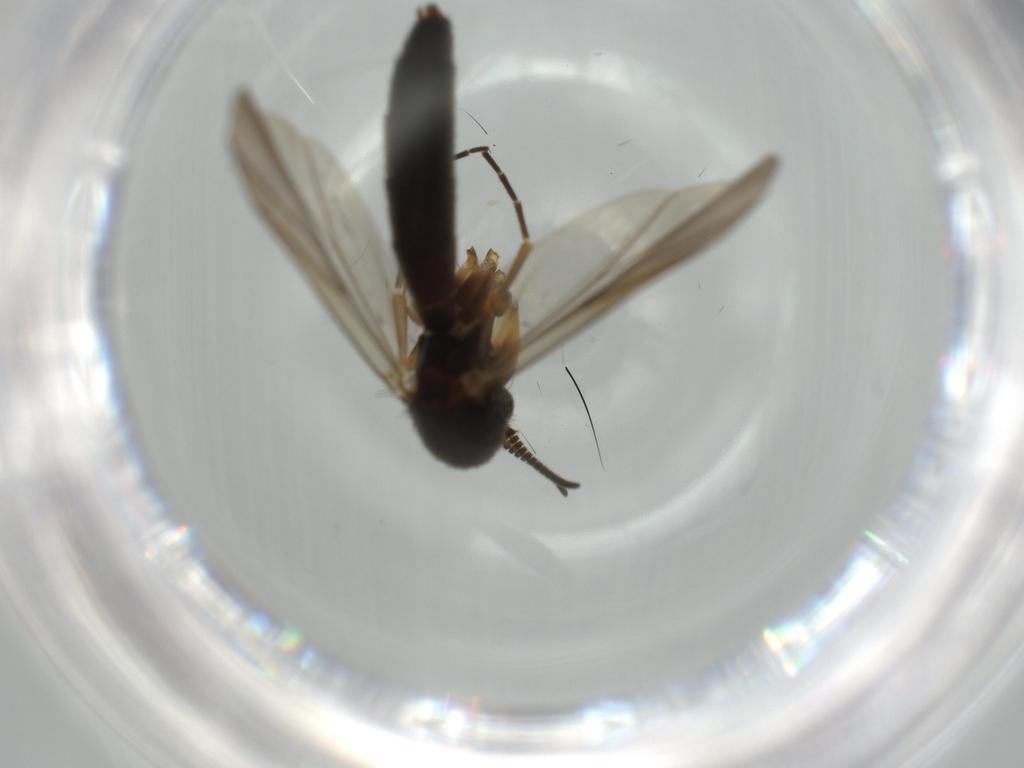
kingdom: Animalia
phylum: Arthropoda
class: Insecta
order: Diptera
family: Mycetophilidae
